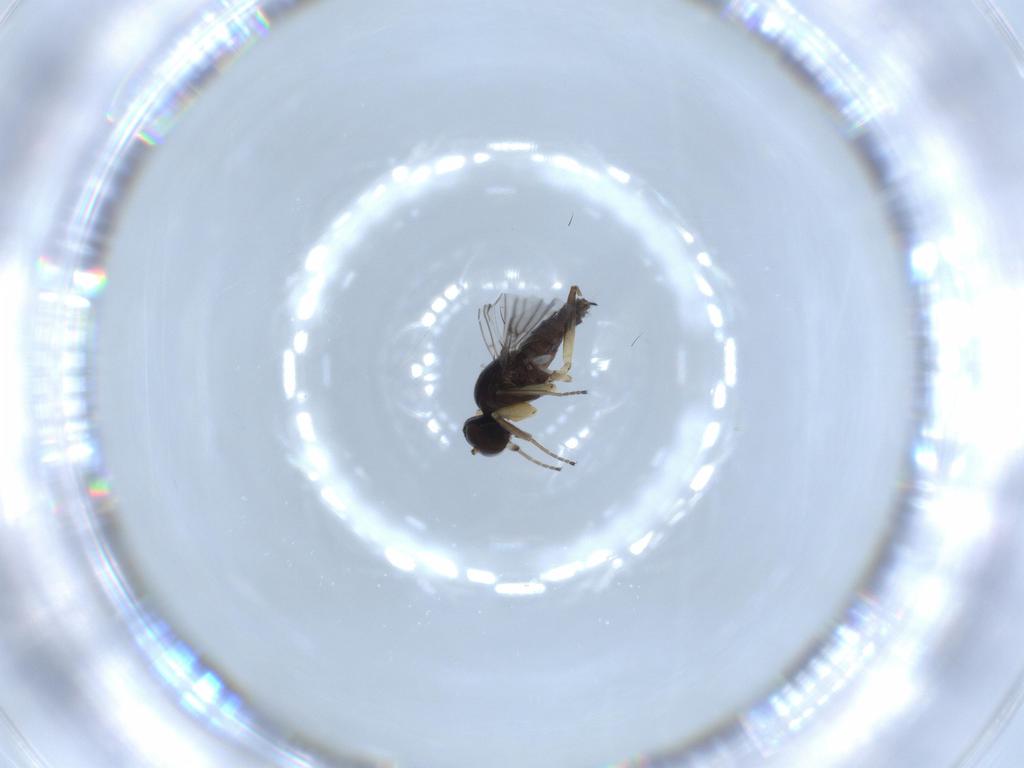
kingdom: Animalia
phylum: Arthropoda
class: Insecta
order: Diptera
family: Hybotidae
